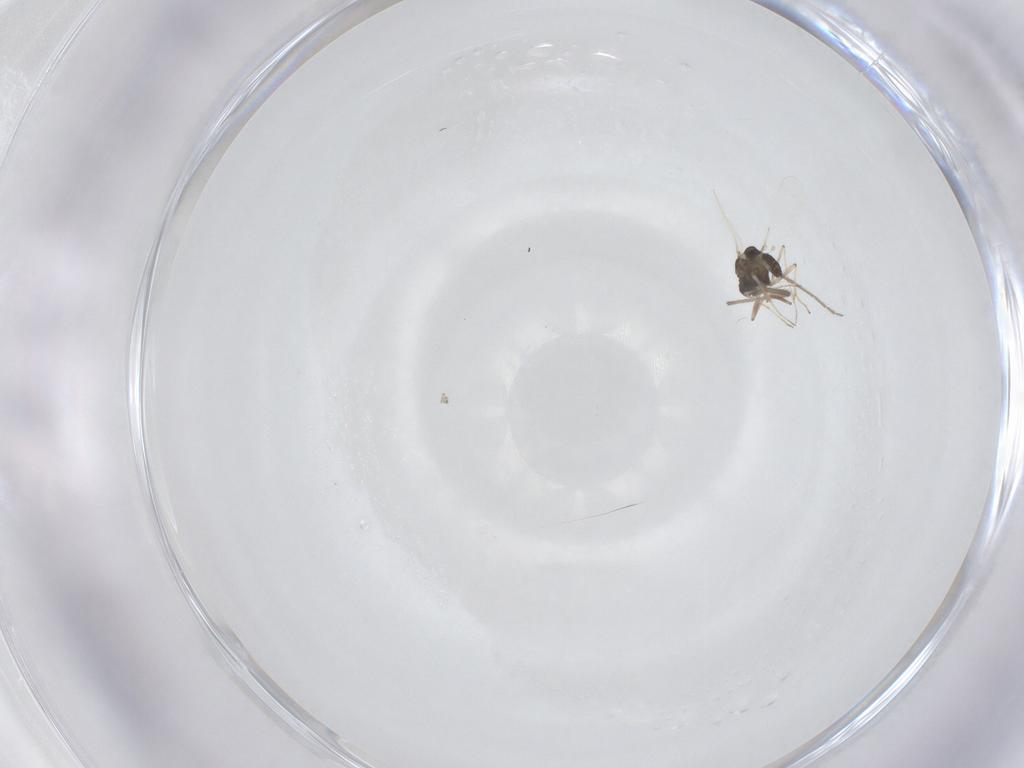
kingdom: Animalia
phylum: Arthropoda
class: Insecta
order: Diptera
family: Chironomidae
